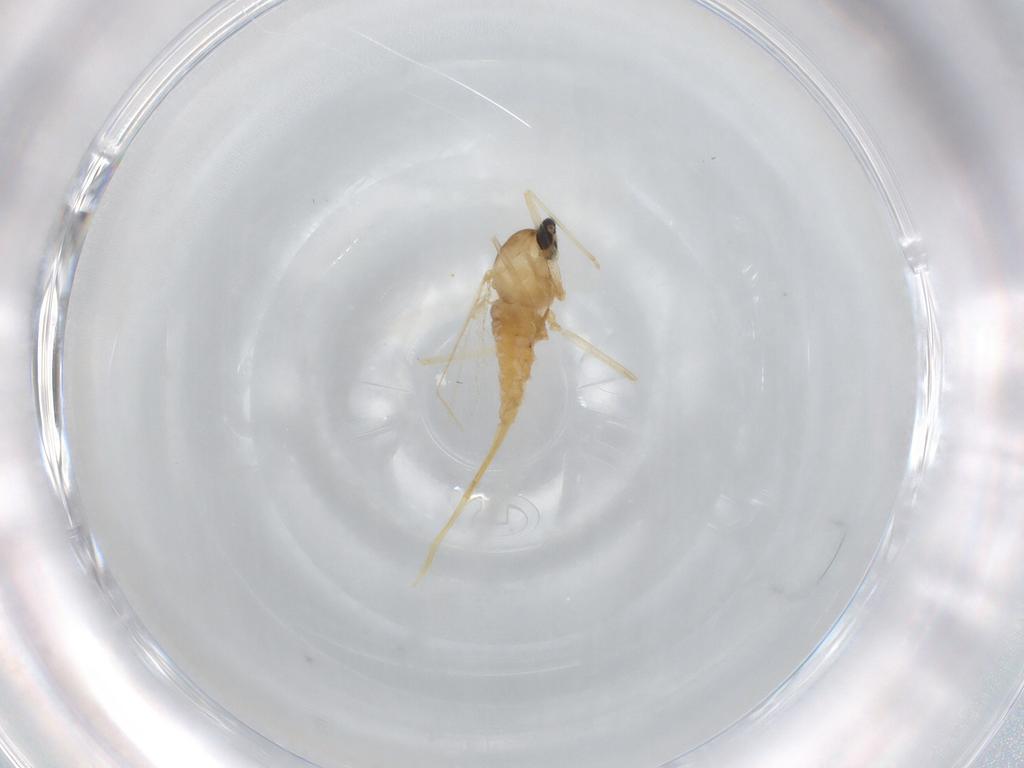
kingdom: Animalia
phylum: Arthropoda
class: Insecta
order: Diptera
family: Cecidomyiidae
